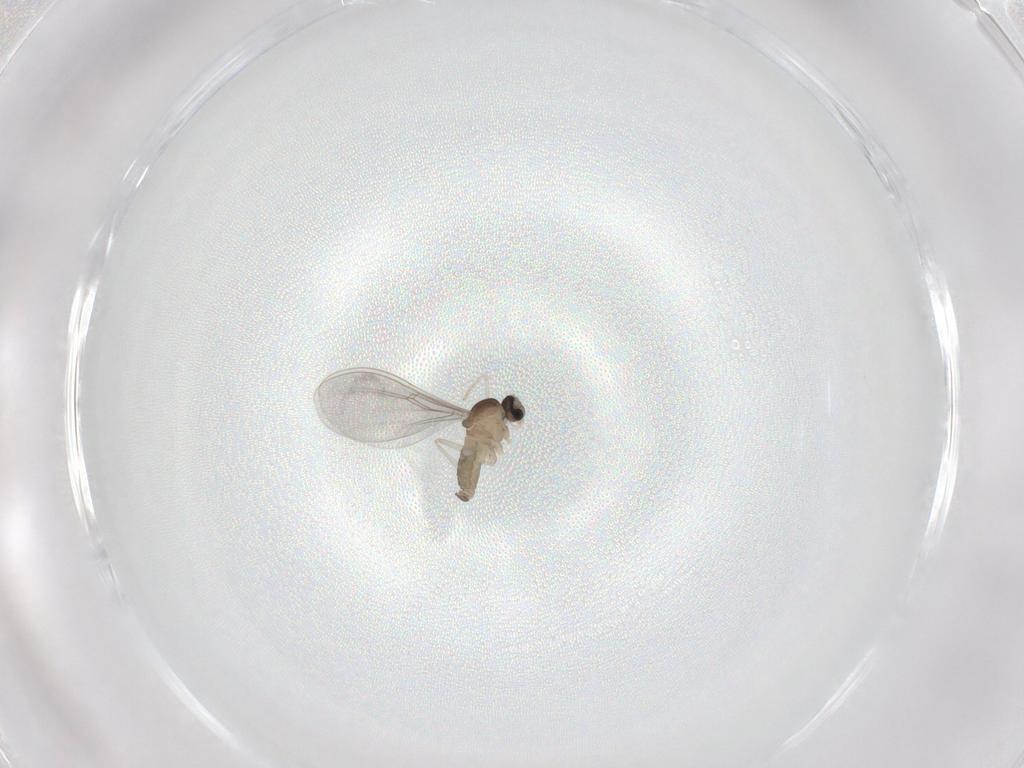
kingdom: Animalia
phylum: Arthropoda
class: Insecta
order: Diptera
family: Cecidomyiidae
